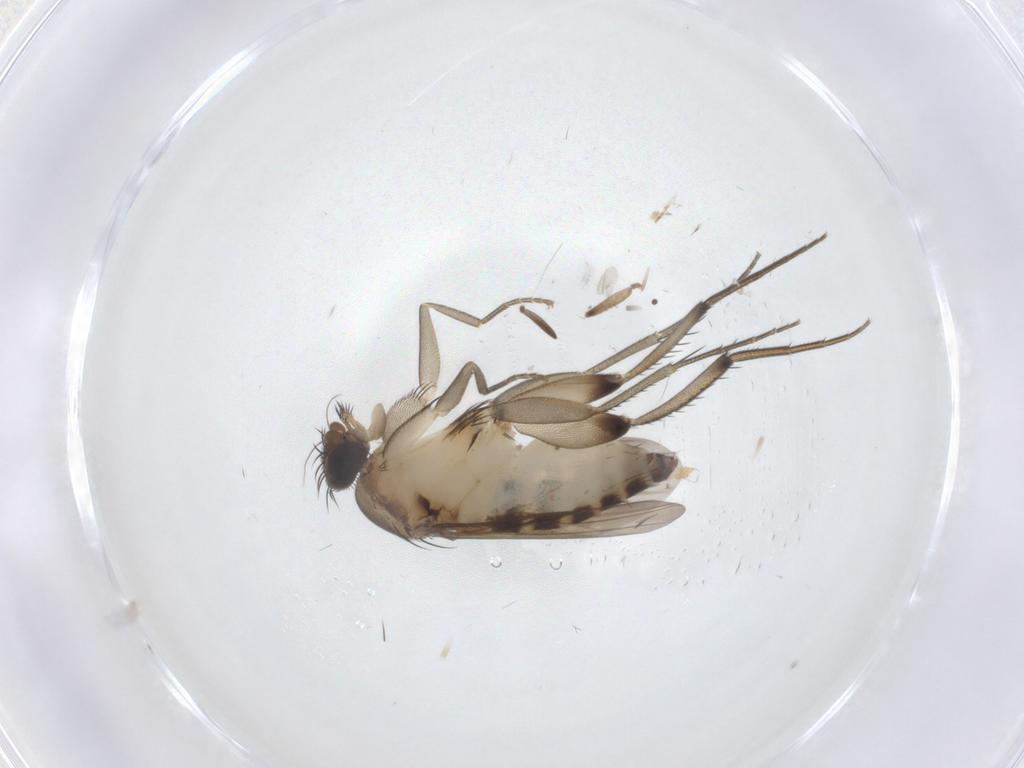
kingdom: Animalia
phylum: Arthropoda
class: Insecta
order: Diptera
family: Phoridae
